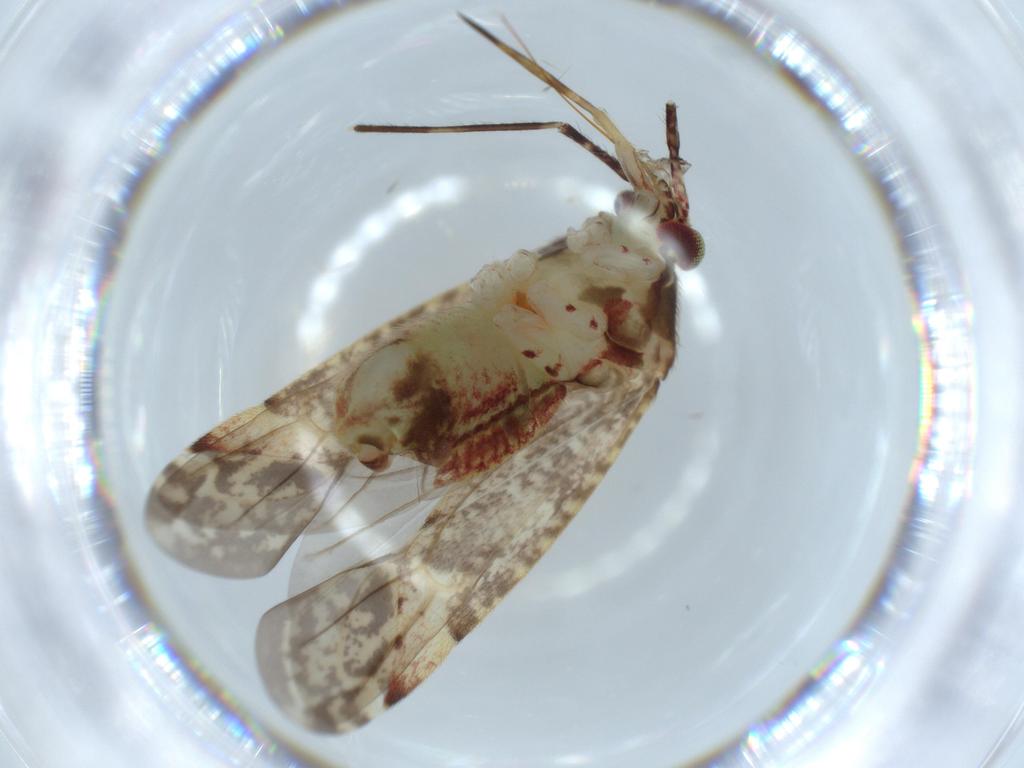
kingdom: Animalia
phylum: Arthropoda
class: Insecta
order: Hemiptera
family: Miridae
